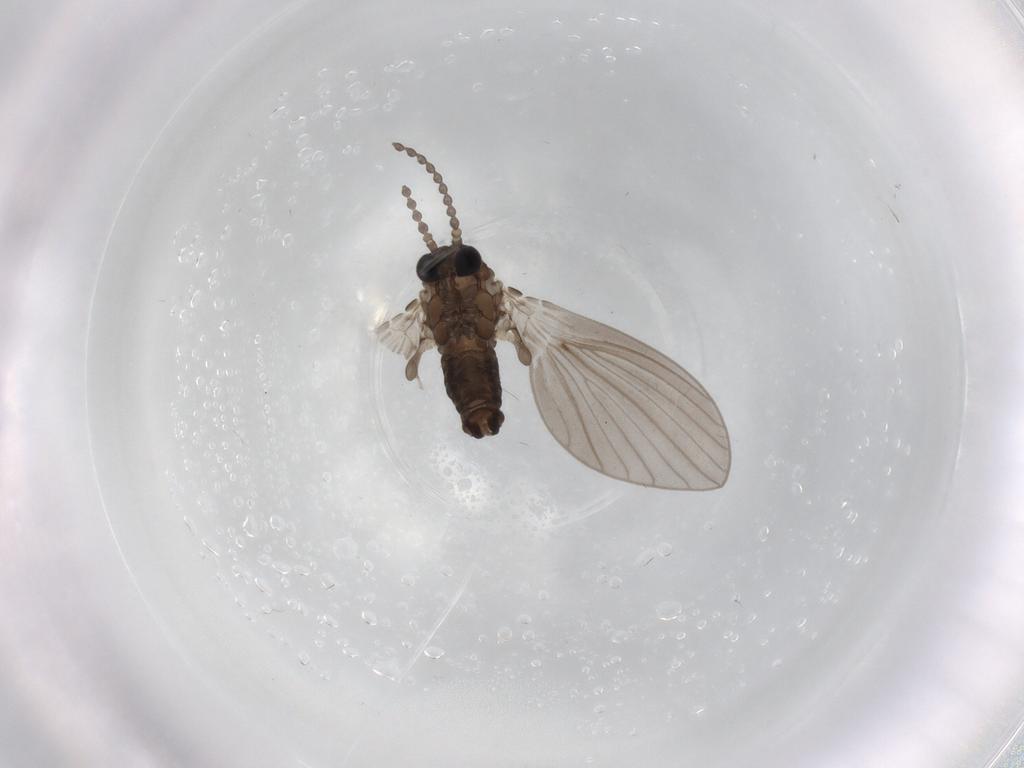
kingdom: Animalia
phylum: Arthropoda
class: Insecta
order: Diptera
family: Psychodidae
